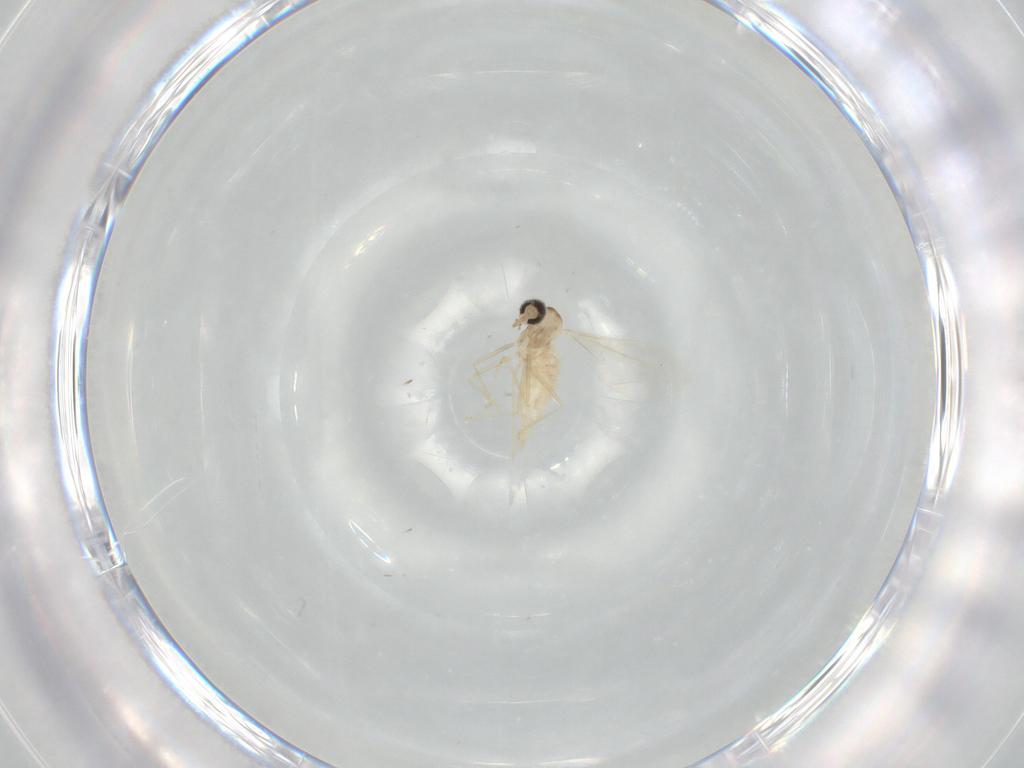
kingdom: Animalia
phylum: Arthropoda
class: Insecta
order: Diptera
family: Cecidomyiidae
